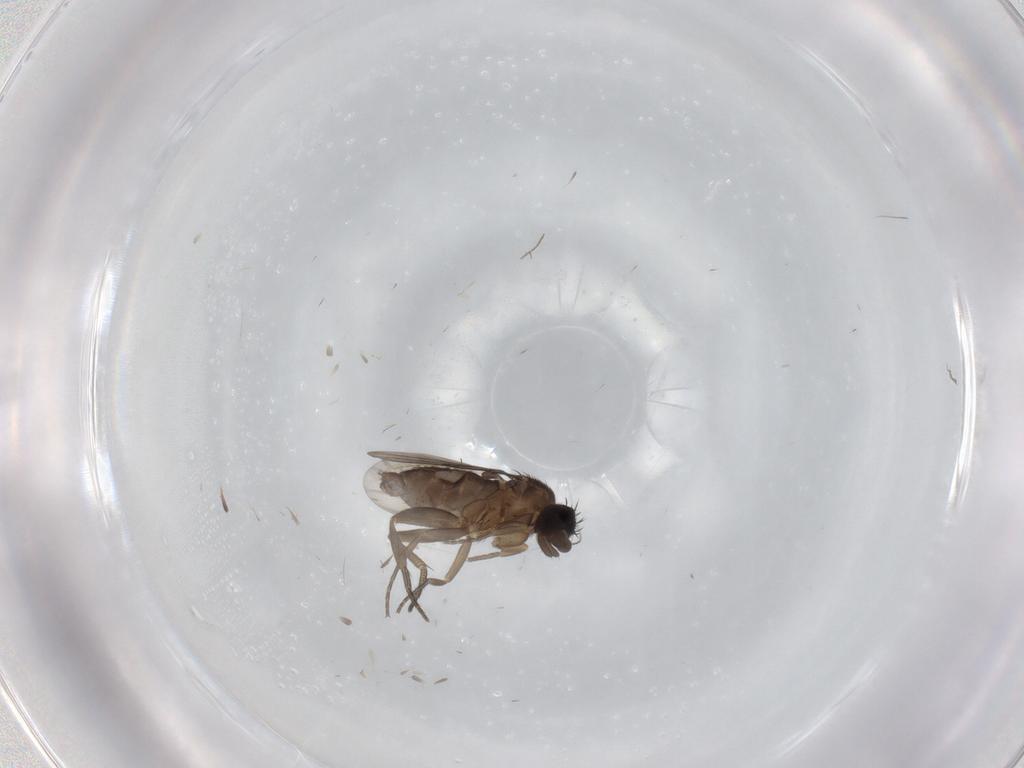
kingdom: Animalia
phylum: Arthropoda
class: Insecta
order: Diptera
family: Phoridae
